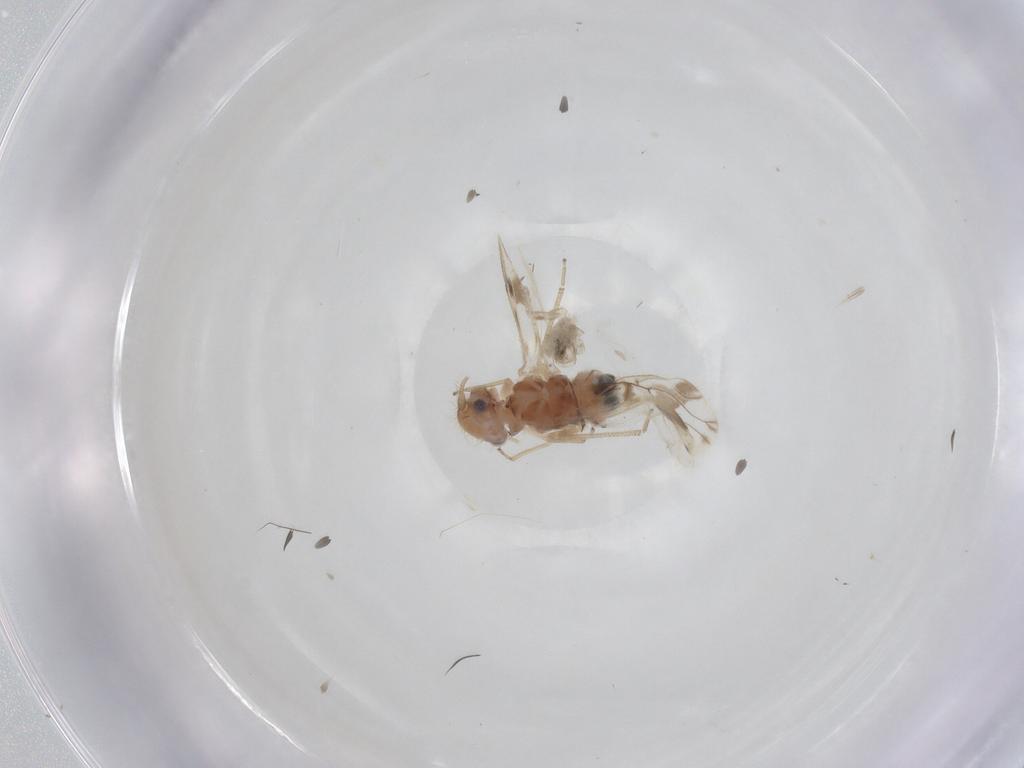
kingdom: Animalia
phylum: Arthropoda
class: Insecta
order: Psocodea
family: Pseudocaeciliidae
